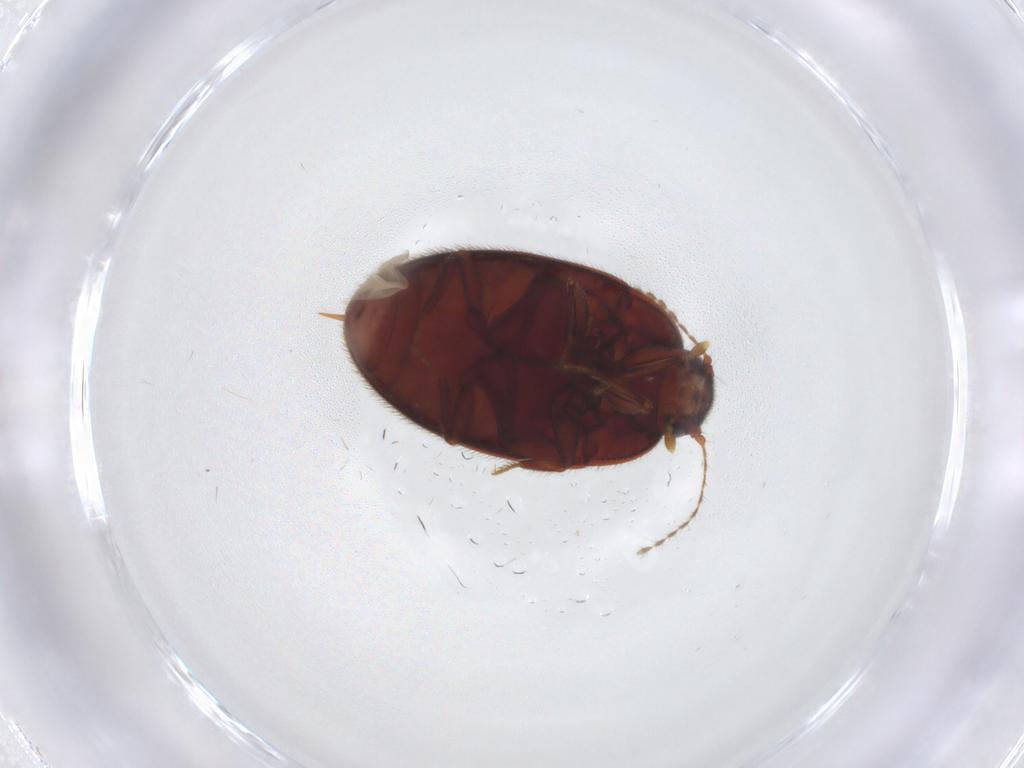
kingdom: Animalia
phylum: Arthropoda
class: Insecta
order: Coleoptera
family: Limnichidae
